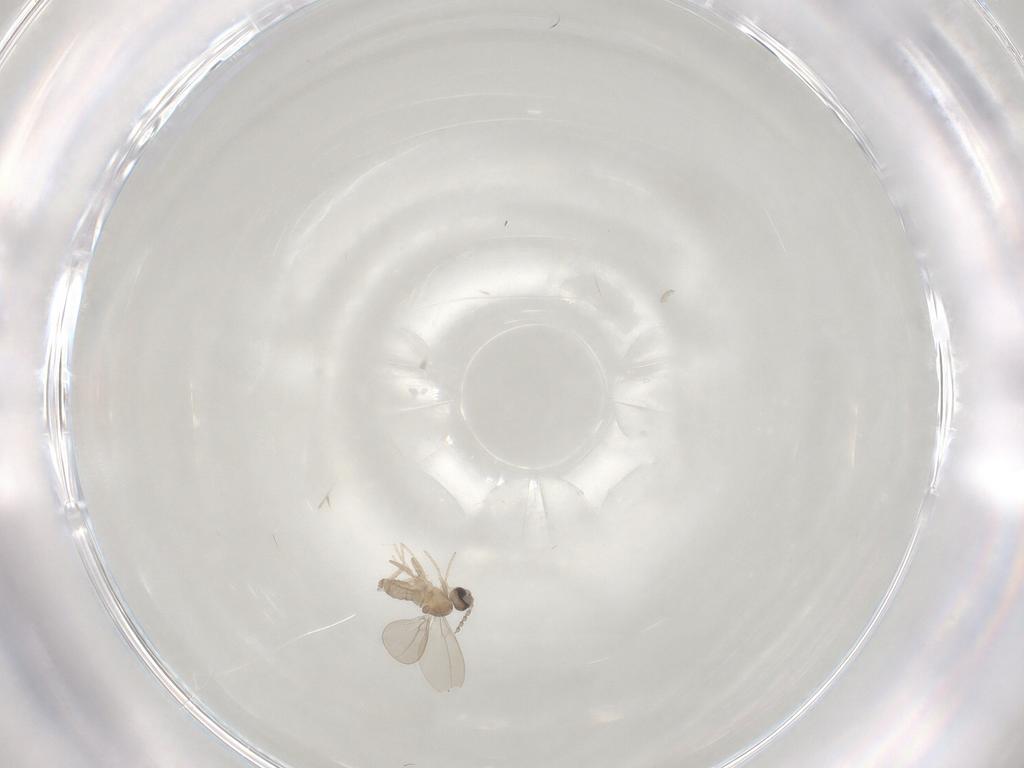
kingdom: Animalia
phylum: Arthropoda
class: Insecta
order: Diptera
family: Cecidomyiidae
